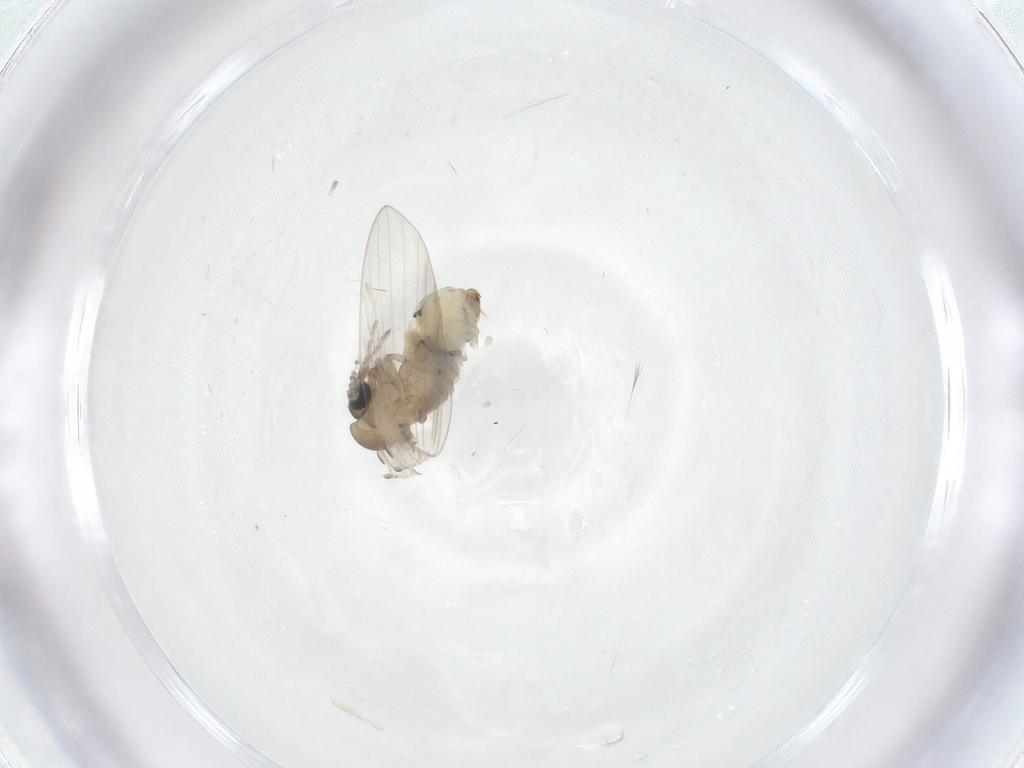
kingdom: Animalia
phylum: Arthropoda
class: Insecta
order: Diptera
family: Psychodidae
